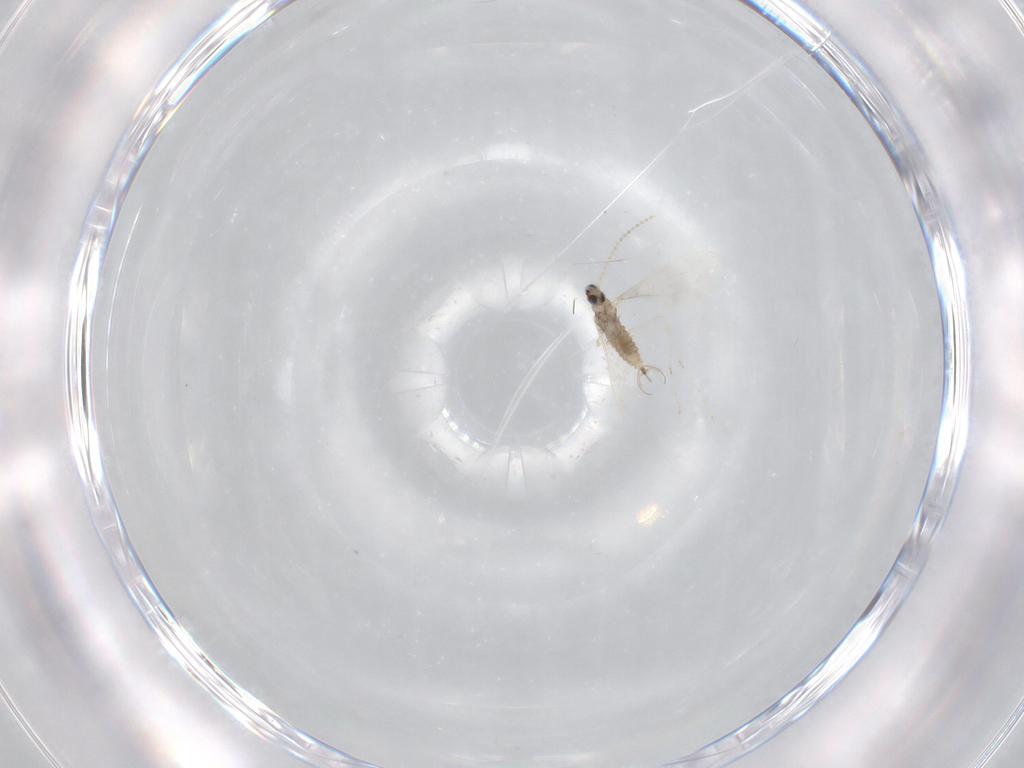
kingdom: Animalia
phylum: Arthropoda
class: Insecta
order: Diptera
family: Cecidomyiidae
